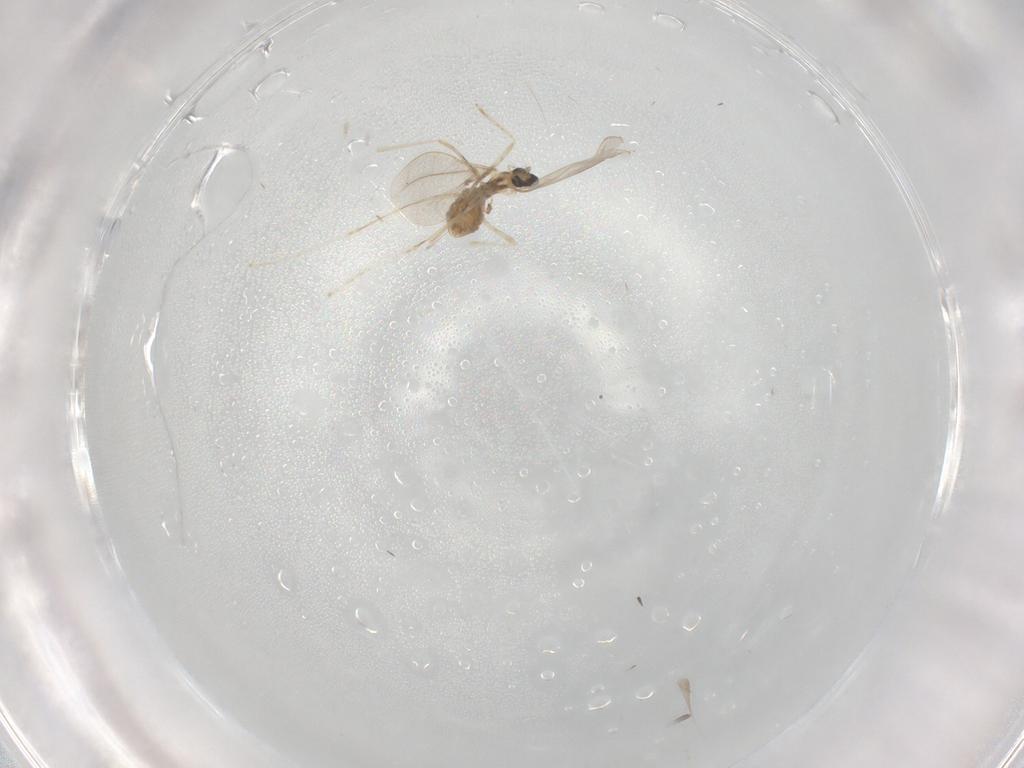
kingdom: Animalia
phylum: Arthropoda
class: Insecta
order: Diptera
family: Cecidomyiidae
